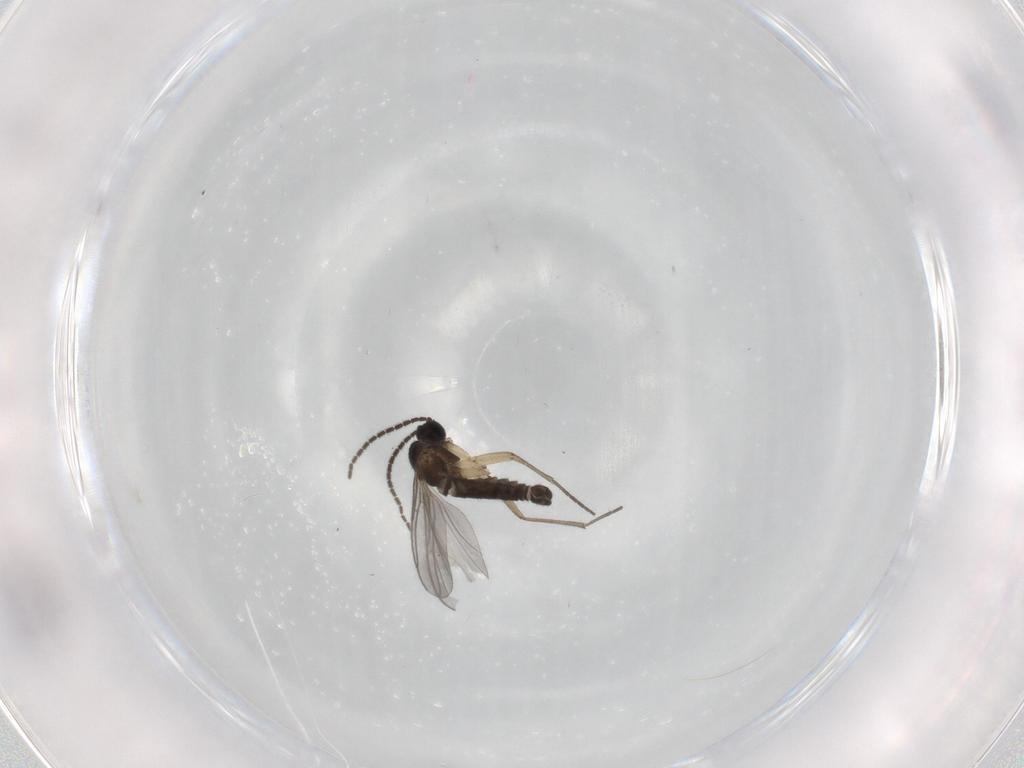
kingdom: Animalia
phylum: Arthropoda
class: Insecta
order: Diptera
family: Sciaridae
